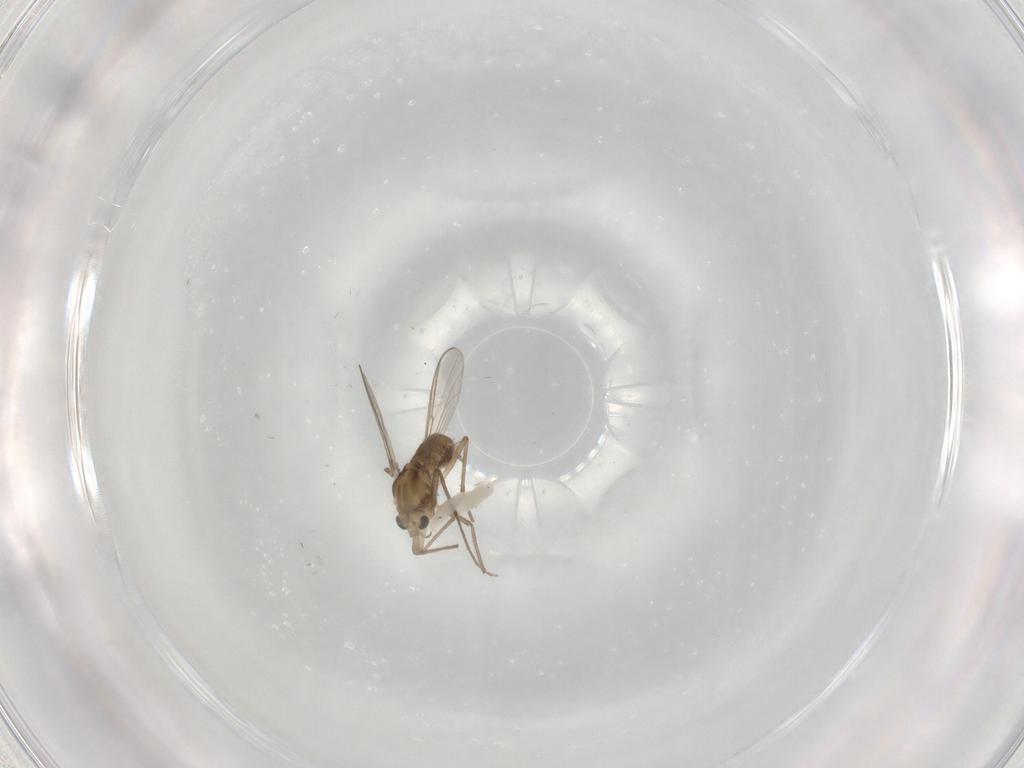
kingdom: Animalia
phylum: Arthropoda
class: Insecta
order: Diptera
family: Chironomidae
